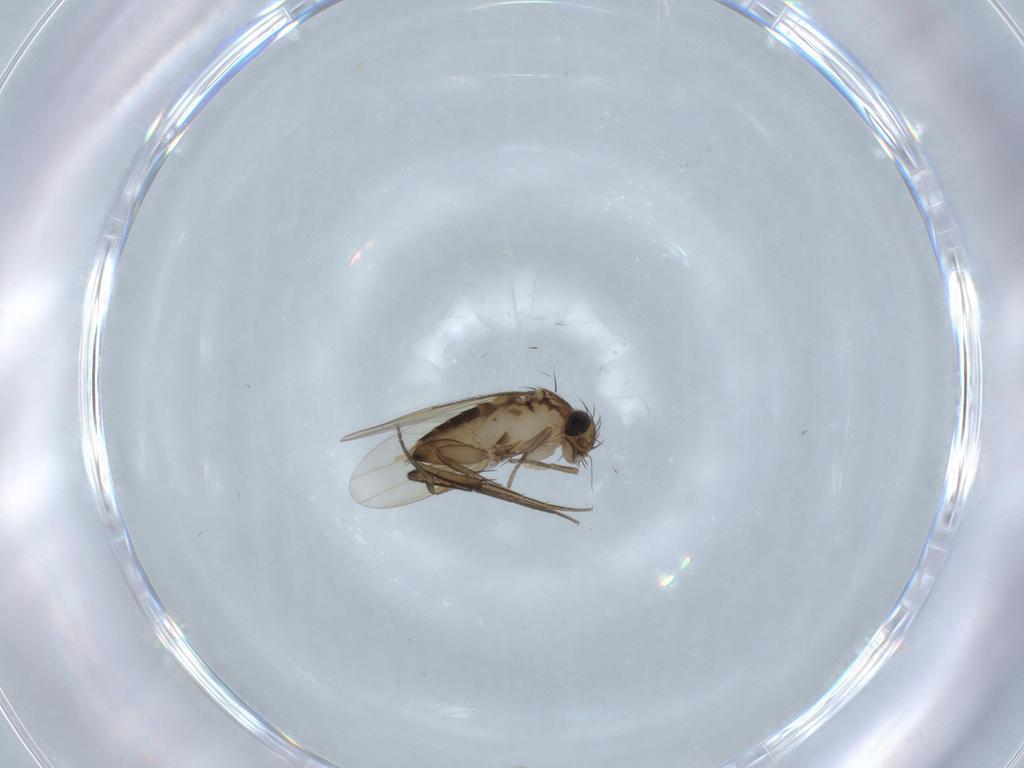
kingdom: Animalia
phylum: Arthropoda
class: Insecta
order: Diptera
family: Phoridae
